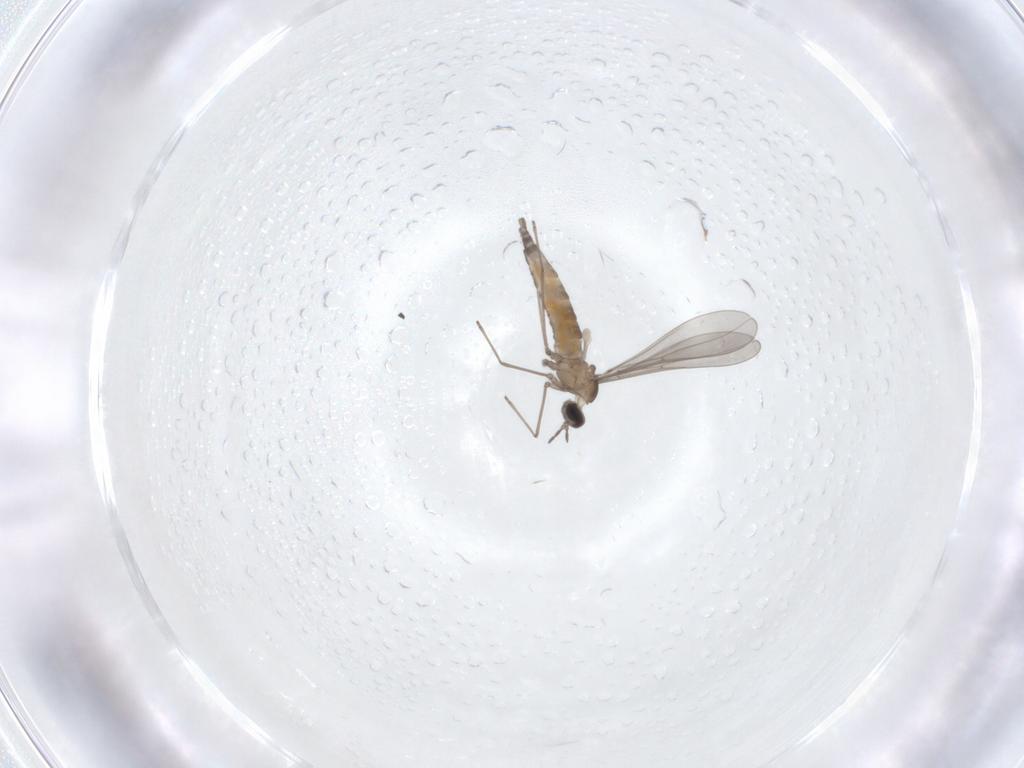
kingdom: Animalia
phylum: Arthropoda
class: Insecta
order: Diptera
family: Cecidomyiidae
